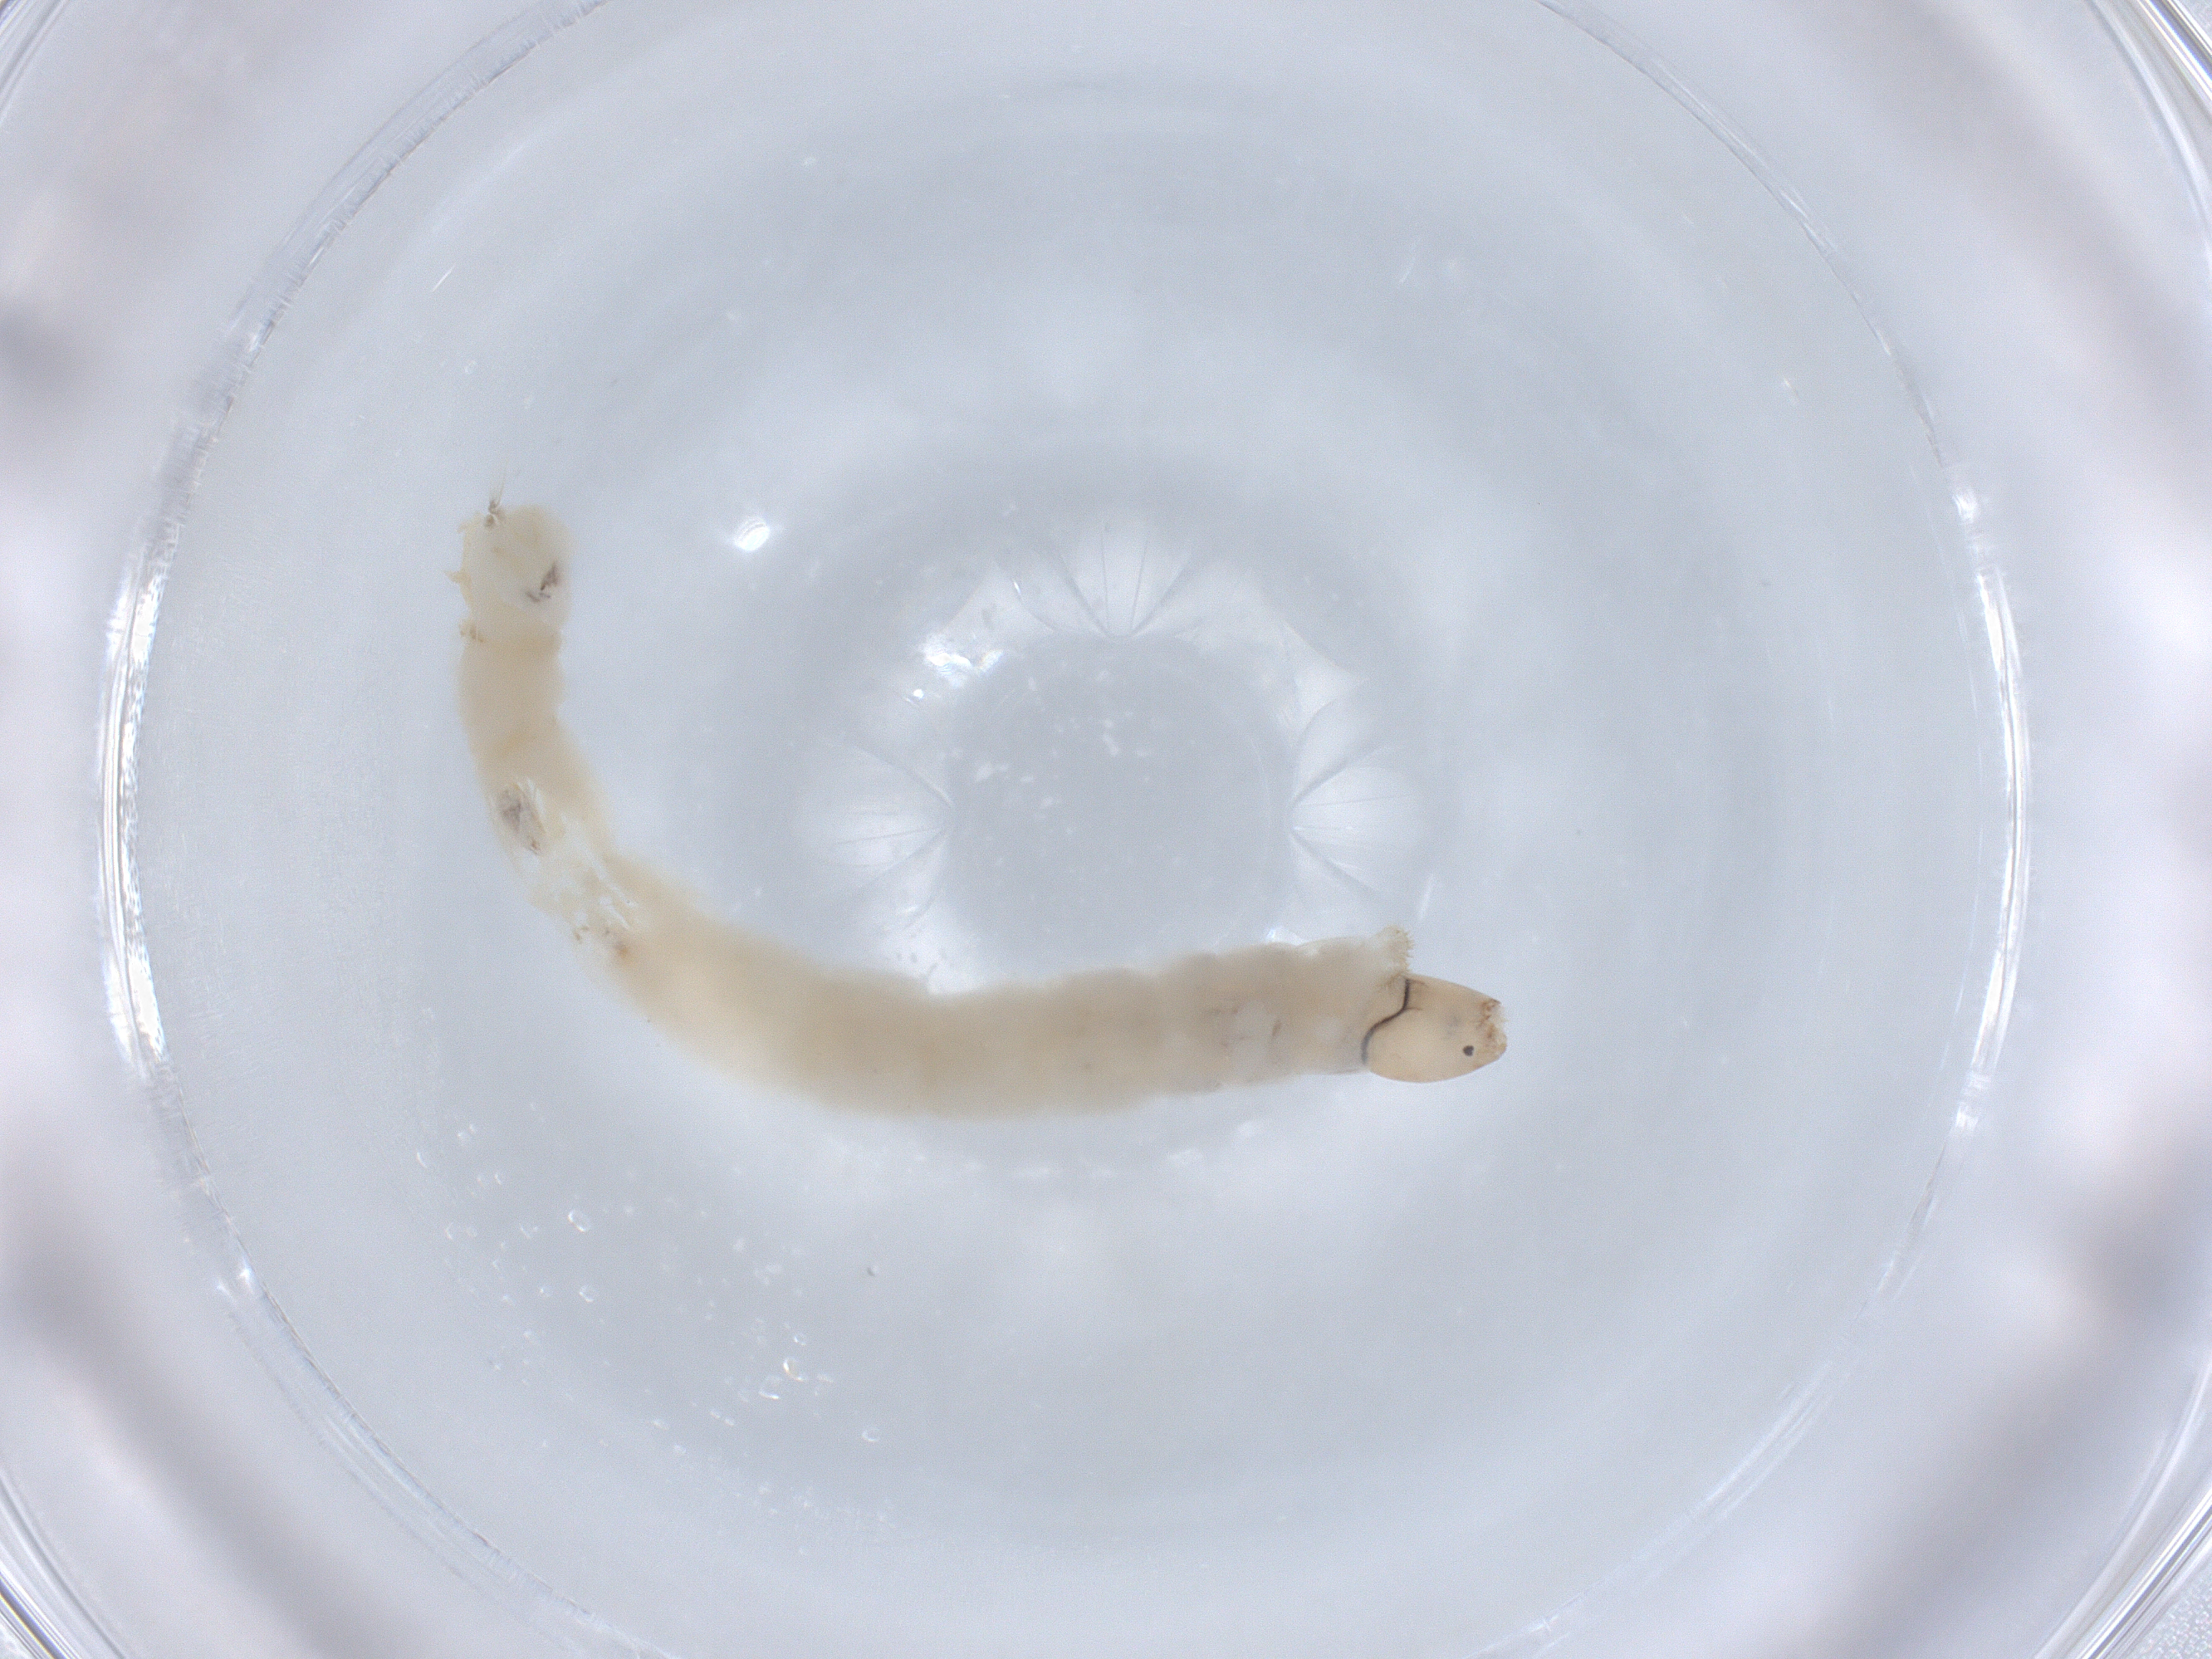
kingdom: Animalia
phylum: Arthropoda
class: Insecta
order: Diptera
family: Chironomidae
